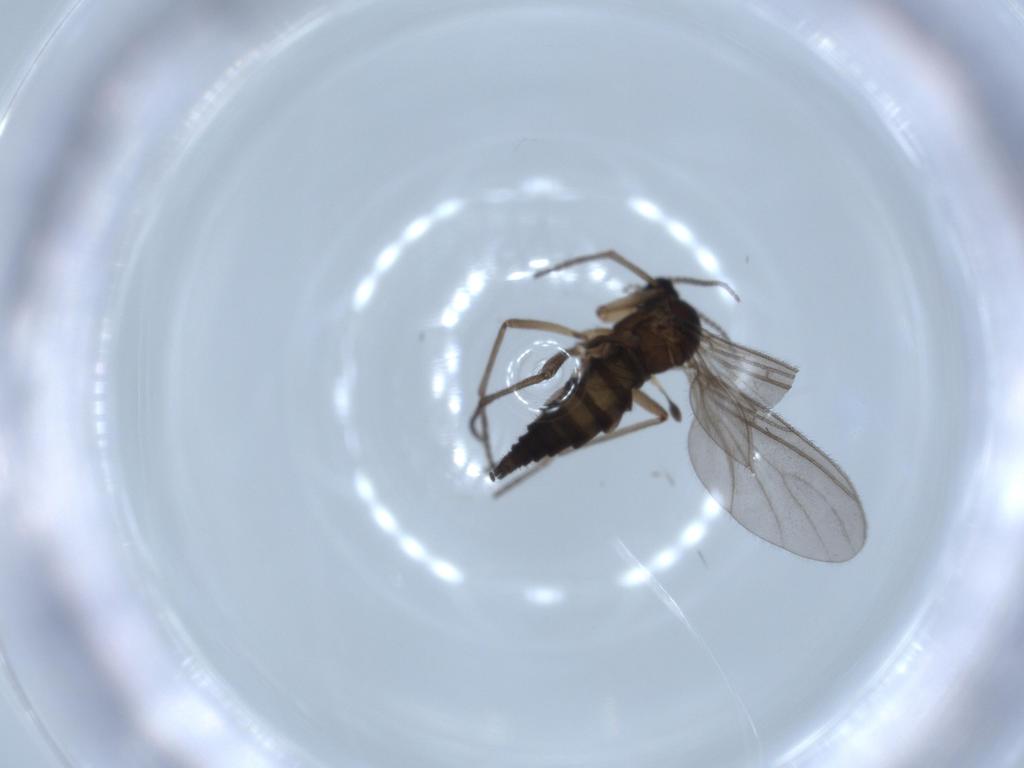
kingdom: Animalia
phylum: Arthropoda
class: Insecta
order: Diptera
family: Sciaridae
